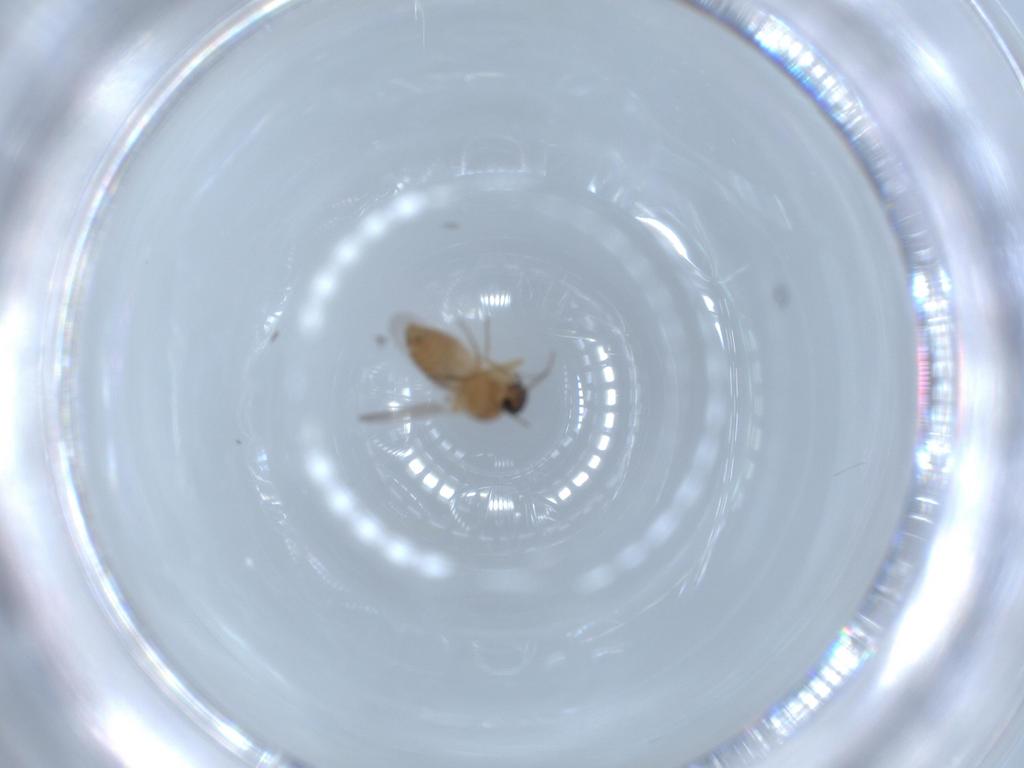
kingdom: Animalia
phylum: Arthropoda
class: Insecta
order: Diptera
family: Ceratopogonidae
